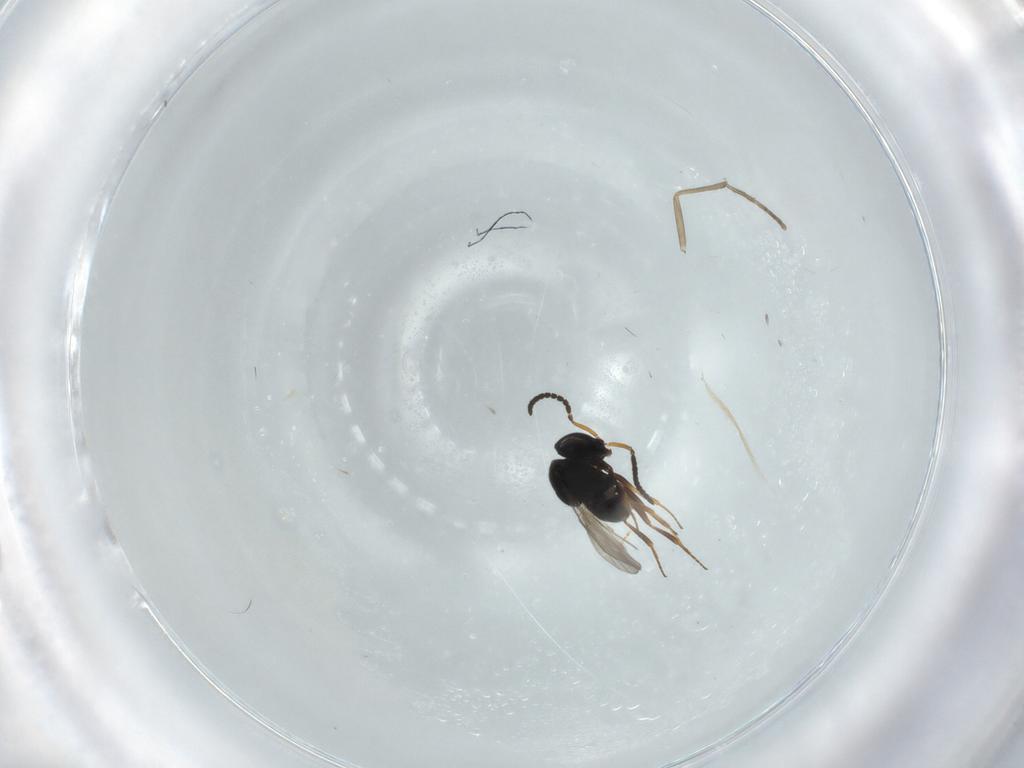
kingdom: Animalia
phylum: Arthropoda
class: Insecta
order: Hymenoptera
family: Scelionidae
